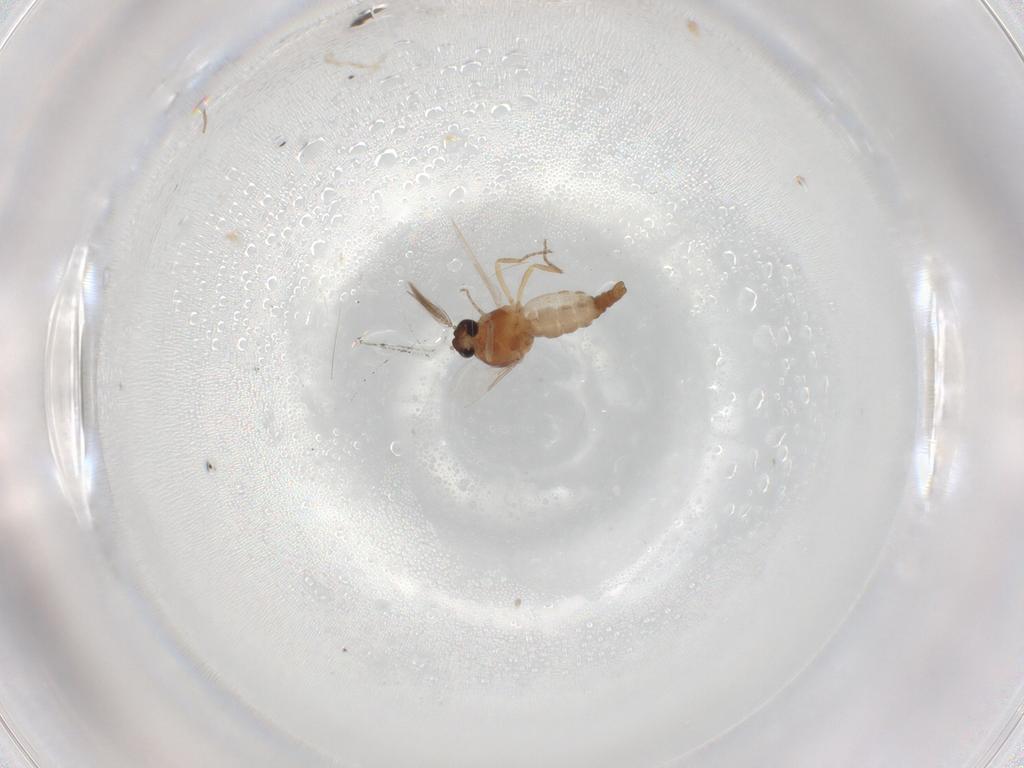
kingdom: Animalia
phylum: Arthropoda
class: Insecta
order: Diptera
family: Ceratopogonidae
